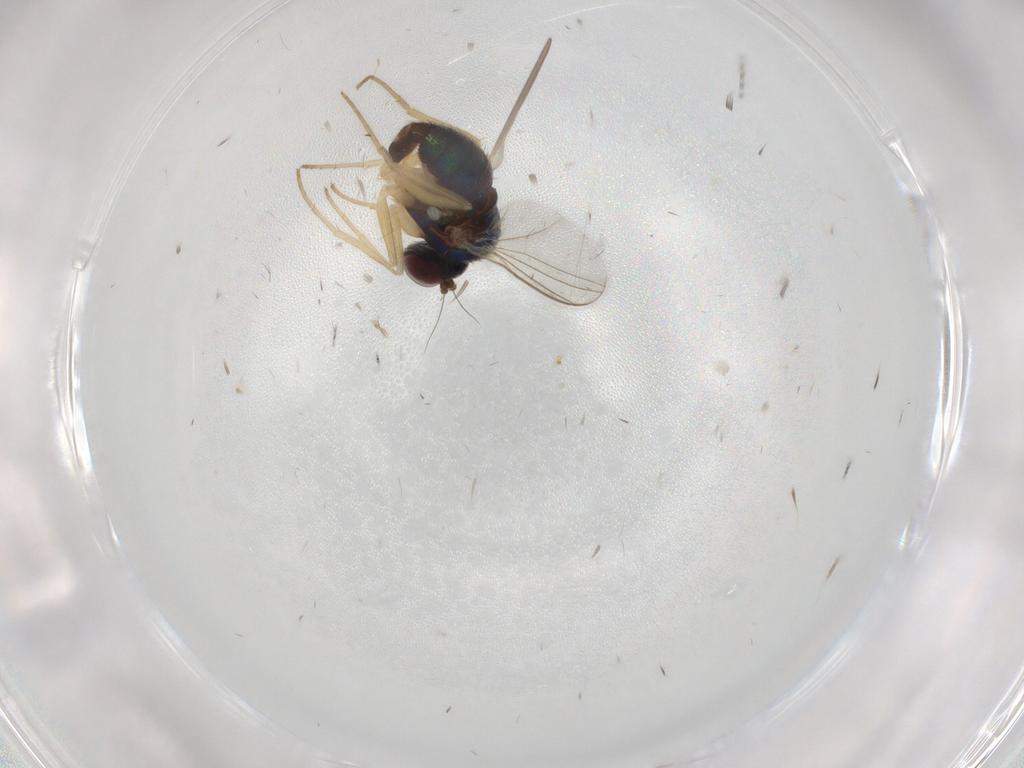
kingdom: Animalia
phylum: Arthropoda
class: Insecta
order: Diptera
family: Dolichopodidae
